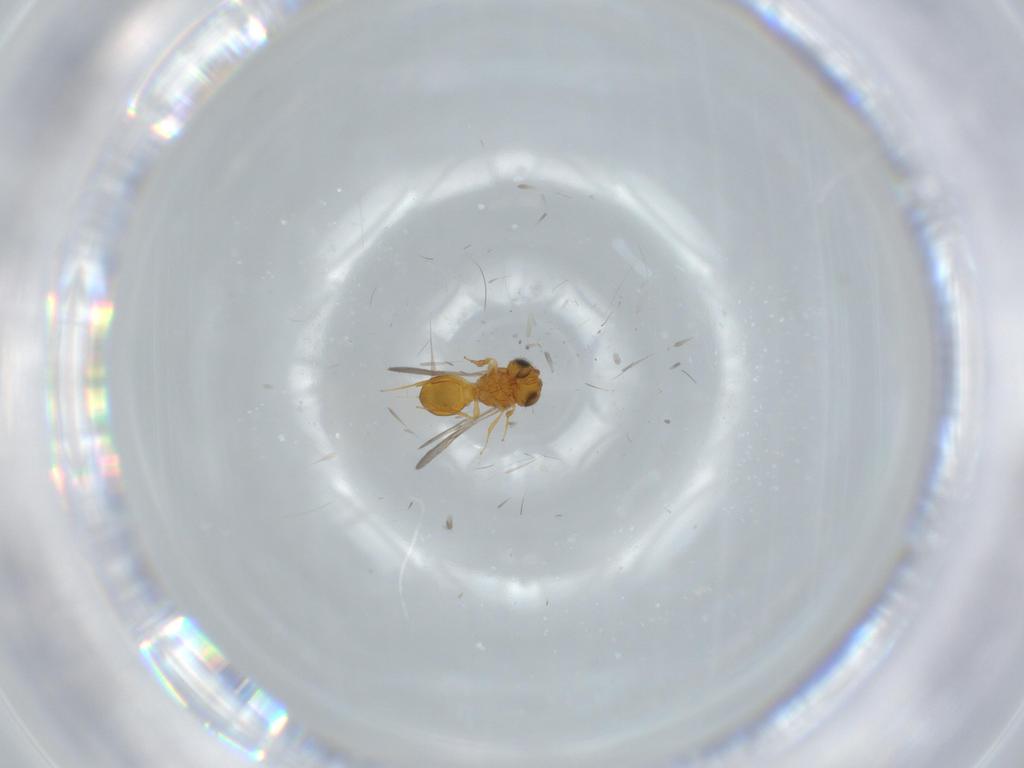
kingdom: Animalia
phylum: Arthropoda
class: Insecta
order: Hymenoptera
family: Scelionidae
